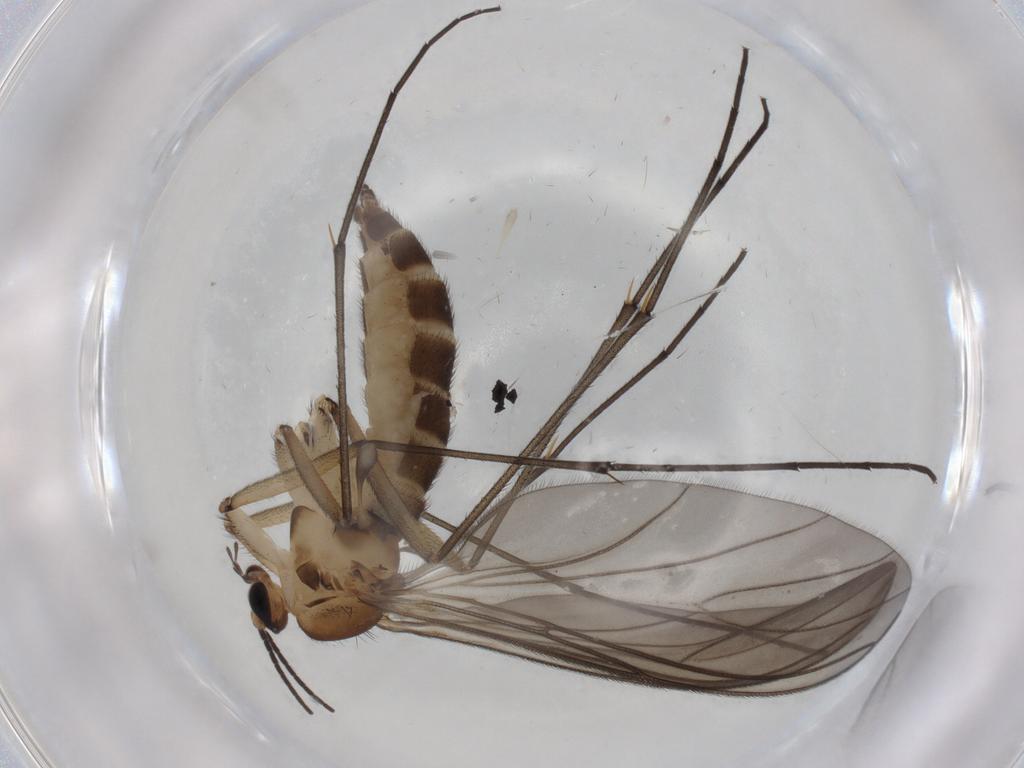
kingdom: Animalia
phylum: Arthropoda
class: Insecta
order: Diptera
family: Sciaridae
